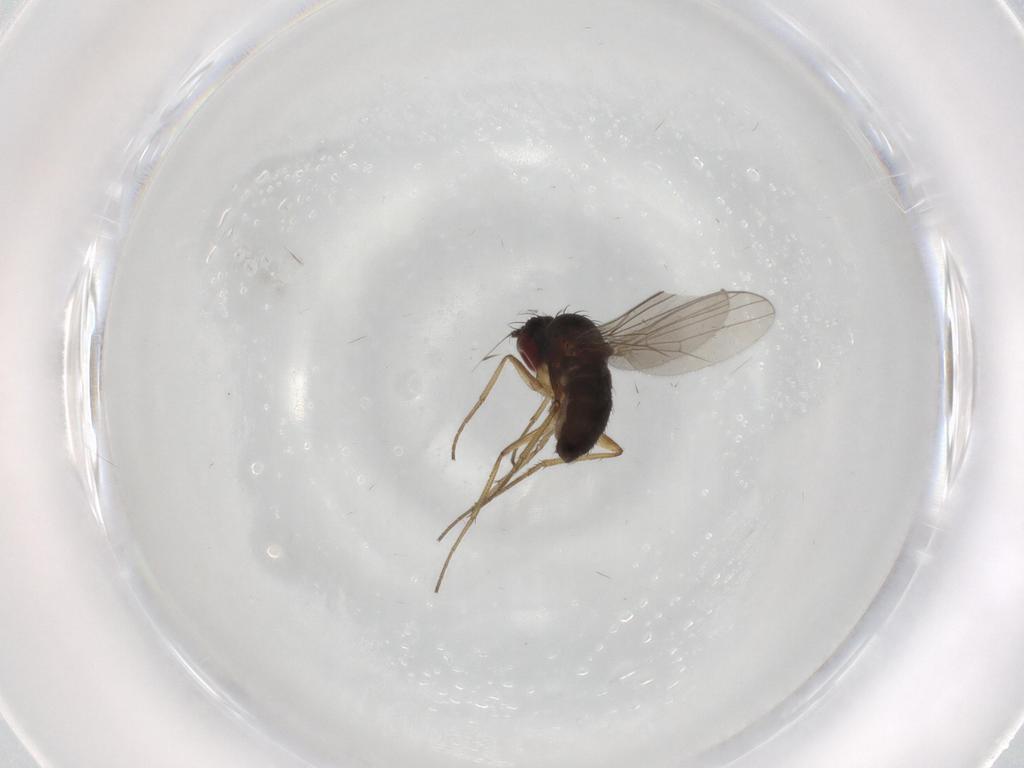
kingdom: Animalia
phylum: Arthropoda
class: Insecta
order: Diptera
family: Dolichopodidae
